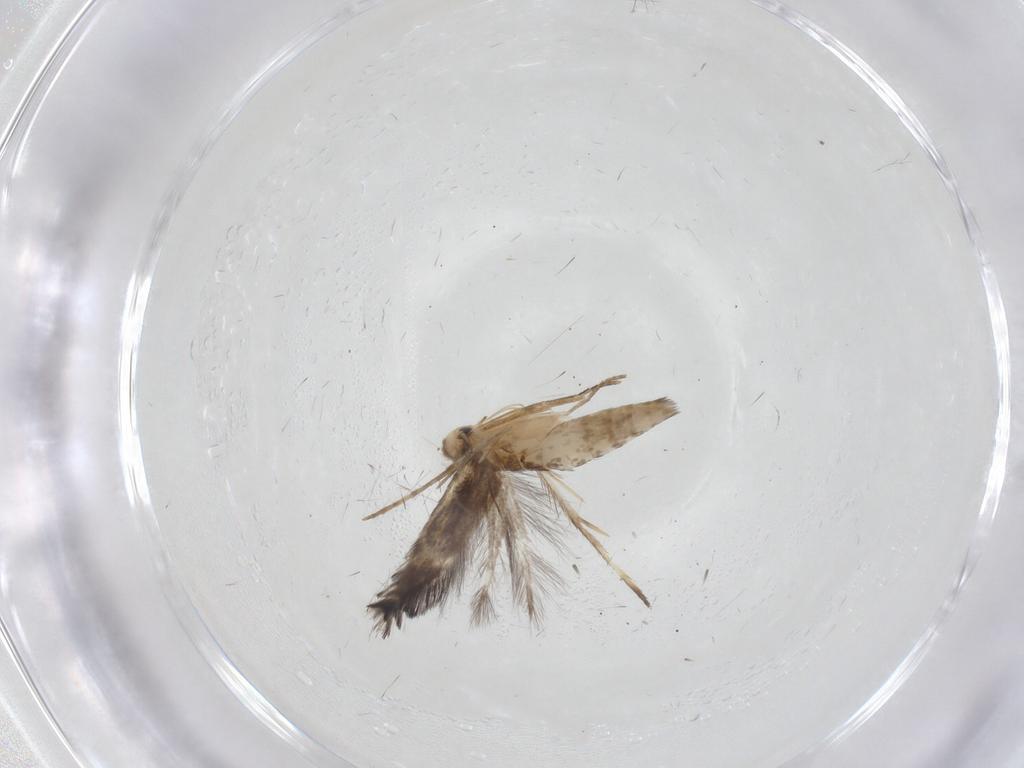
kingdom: Animalia
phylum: Arthropoda
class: Insecta
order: Lepidoptera
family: Gracillariidae
